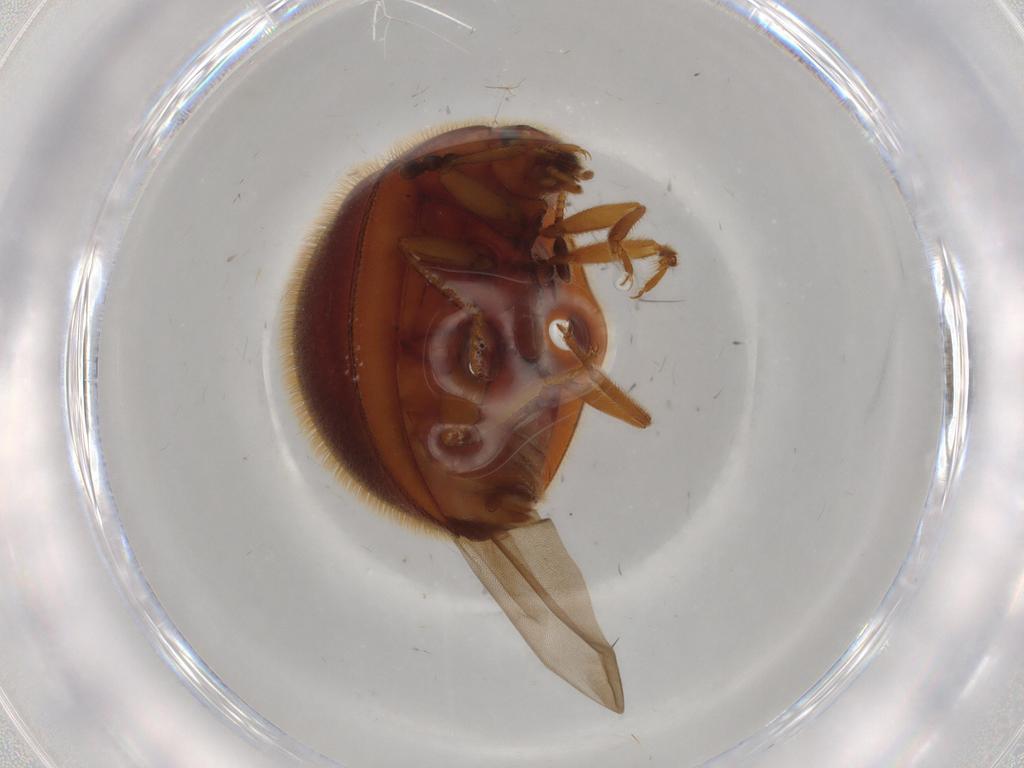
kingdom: Animalia
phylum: Arthropoda
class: Insecta
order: Coleoptera
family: Anamorphidae
